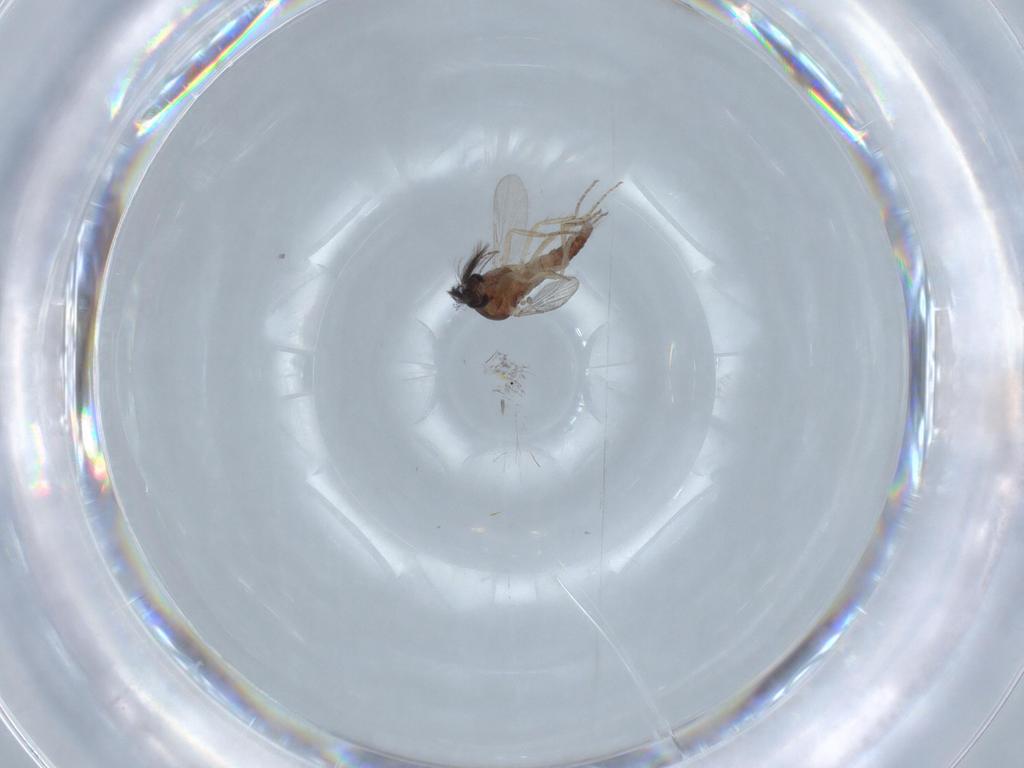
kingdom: Animalia
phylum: Arthropoda
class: Insecta
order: Diptera
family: Ceratopogonidae
